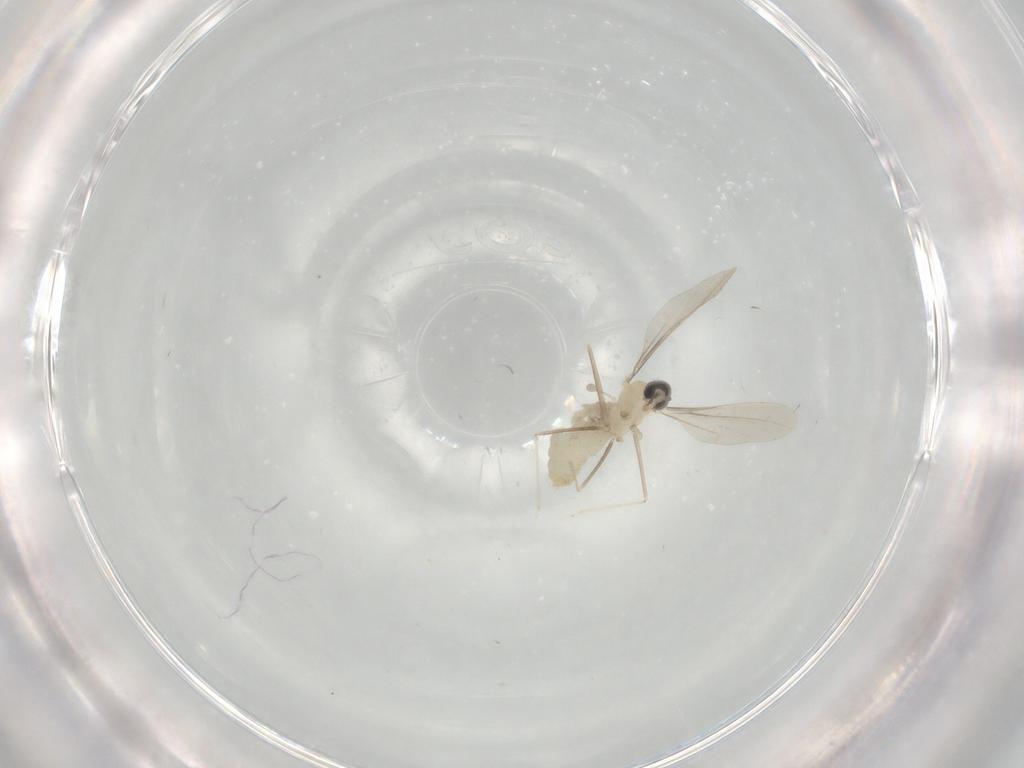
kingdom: Animalia
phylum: Arthropoda
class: Insecta
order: Diptera
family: Cecidomyiidae
